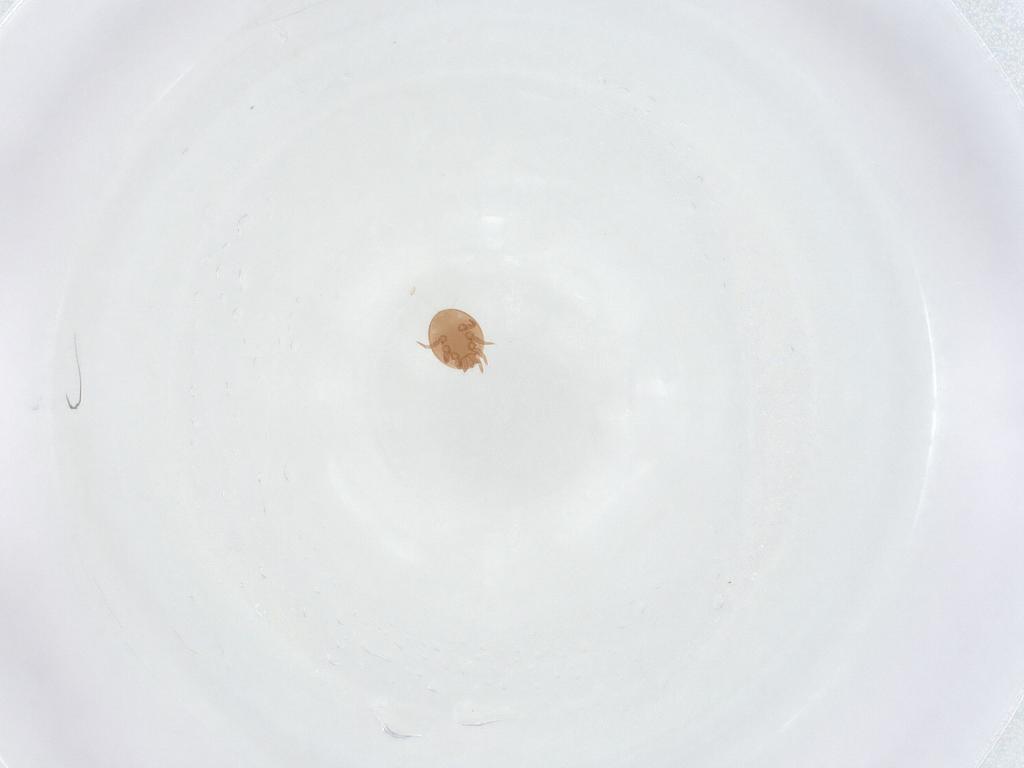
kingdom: Animalia
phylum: Arthropoda
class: Arachnida
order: Mesostigmata
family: Trematuridae
